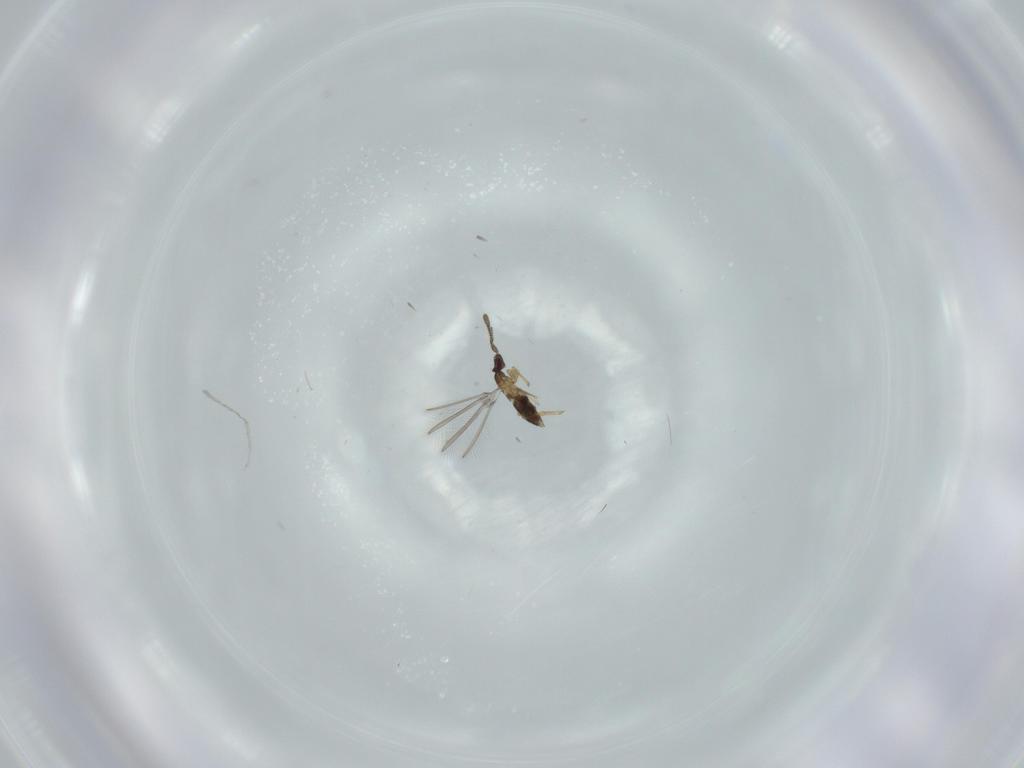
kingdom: Animalia
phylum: Arthropoda
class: Insecta
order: Hymenoptera
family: Mymaridae
